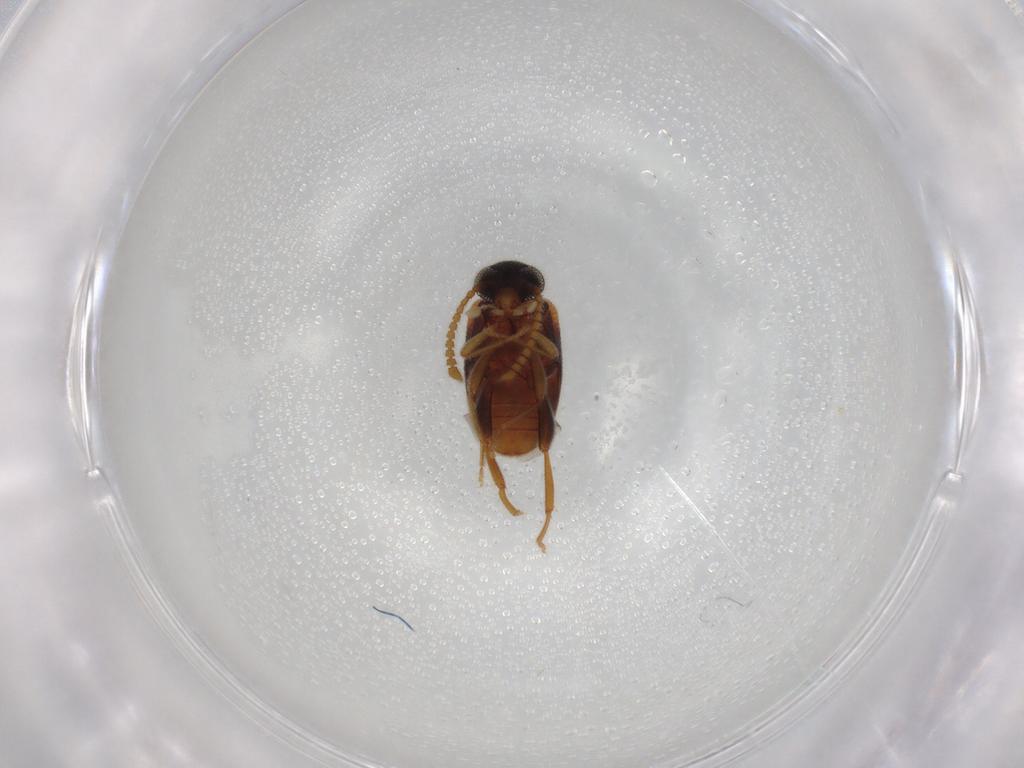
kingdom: Animalia
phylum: Arthropoda
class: Insecta
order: Coleoptera
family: Aderidae
